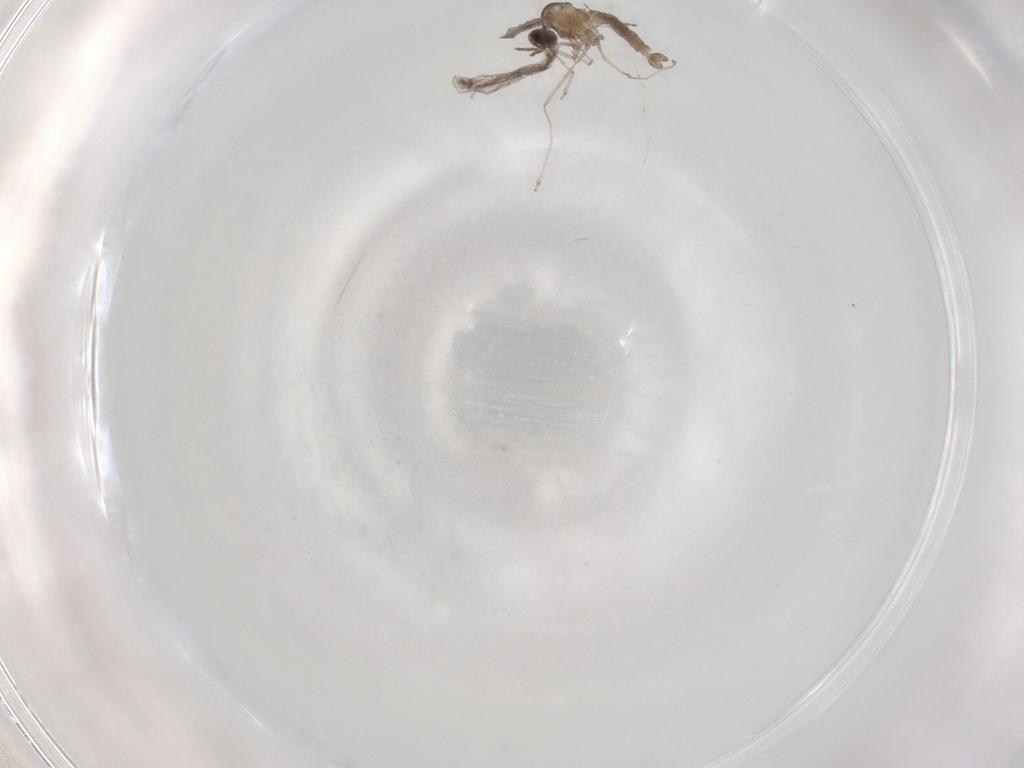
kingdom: Animalia
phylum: Arthropoda
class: Insecta
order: Diptera
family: Cecidomyiidae
